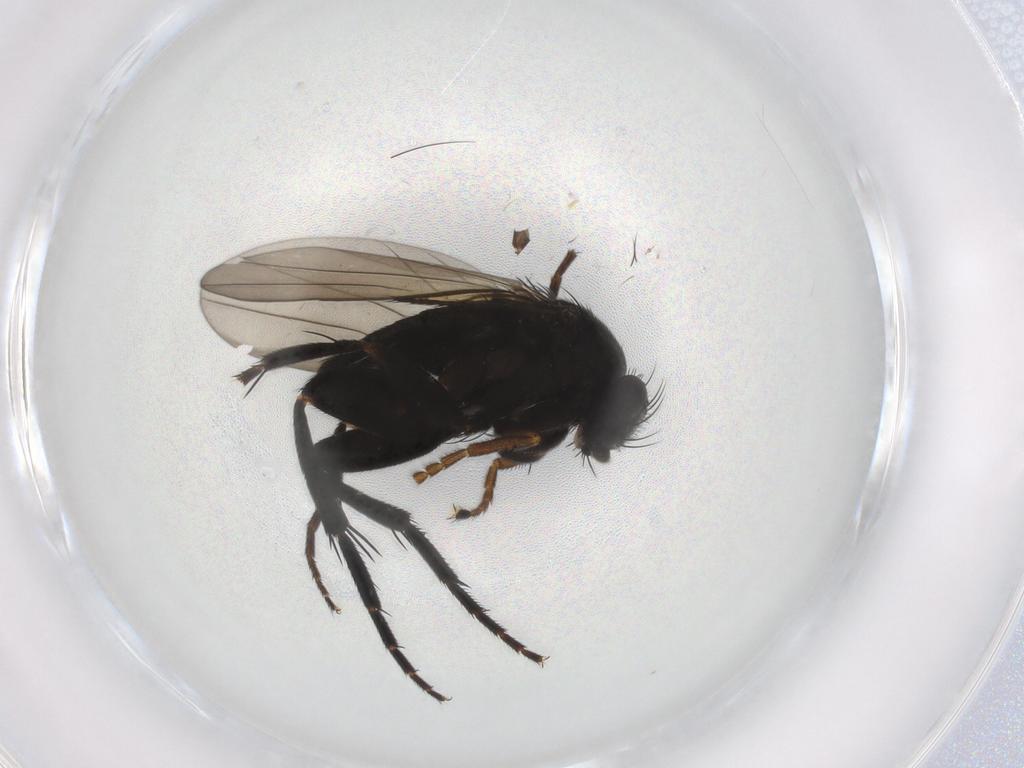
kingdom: Animalia
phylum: Arthropoda
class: Insecta
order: Diptera
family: Phoridae
